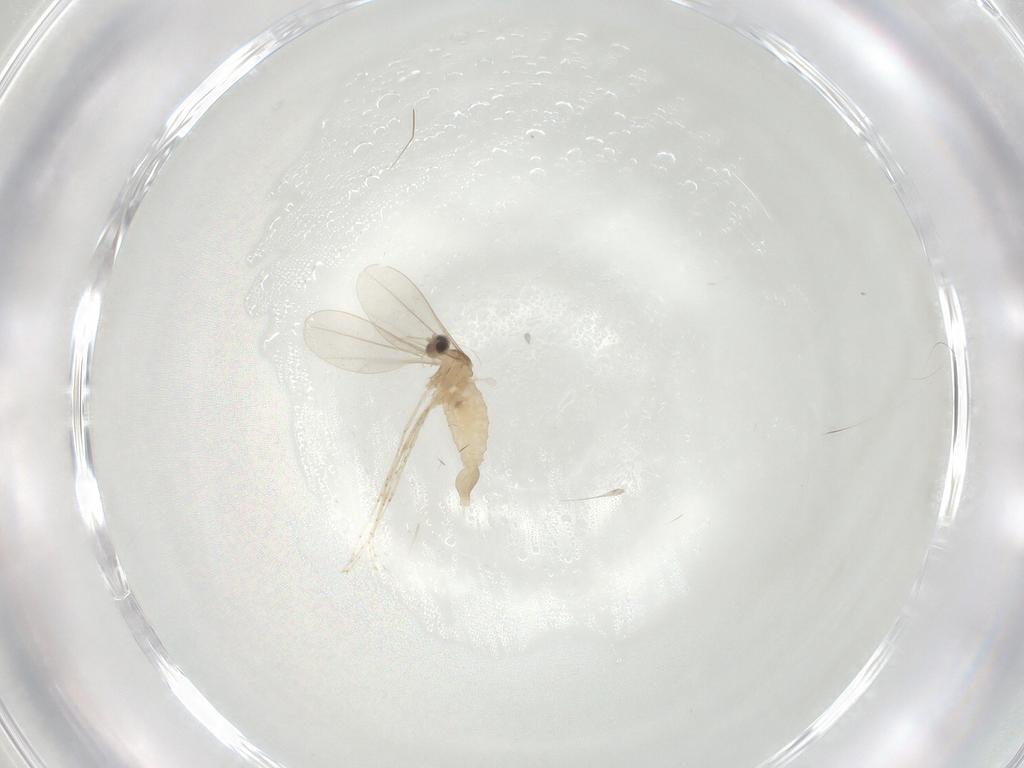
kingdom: Animalia
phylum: Arthropoda
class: Insecta
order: Diptera
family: Cecidomyiidae
